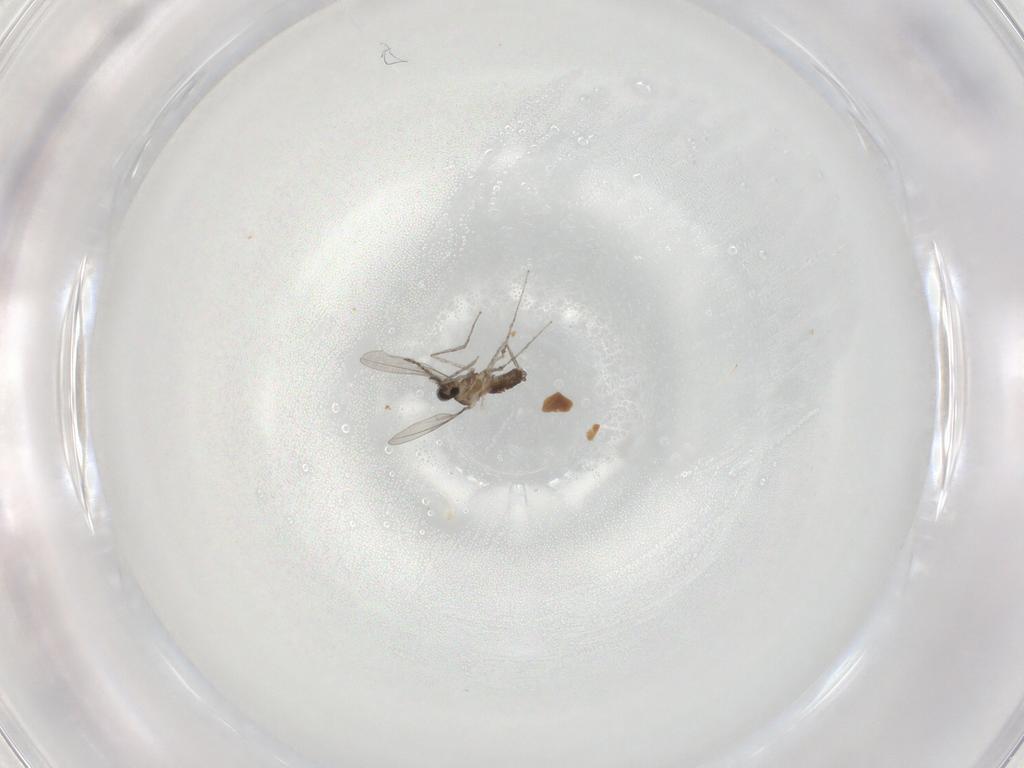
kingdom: Animalia
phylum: Arthropoda
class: Insecta
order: Diptera
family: Cecidomyiidae
